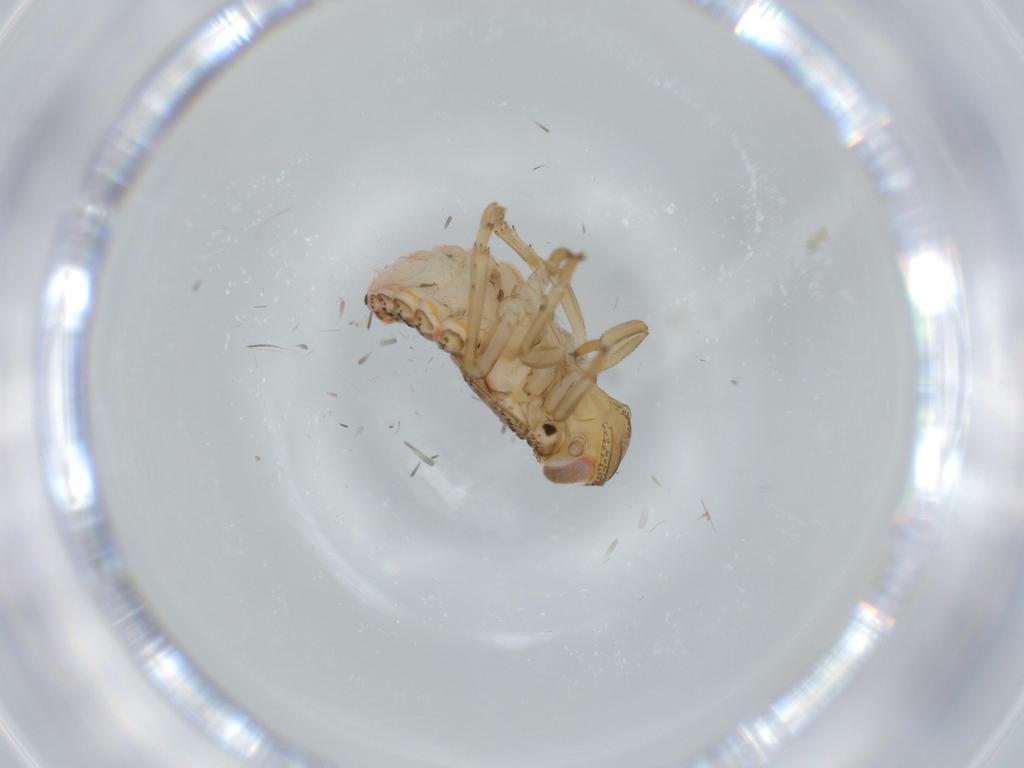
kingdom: Animalia
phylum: Arthropoda
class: Insecta
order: Hemiptera
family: Issidae
